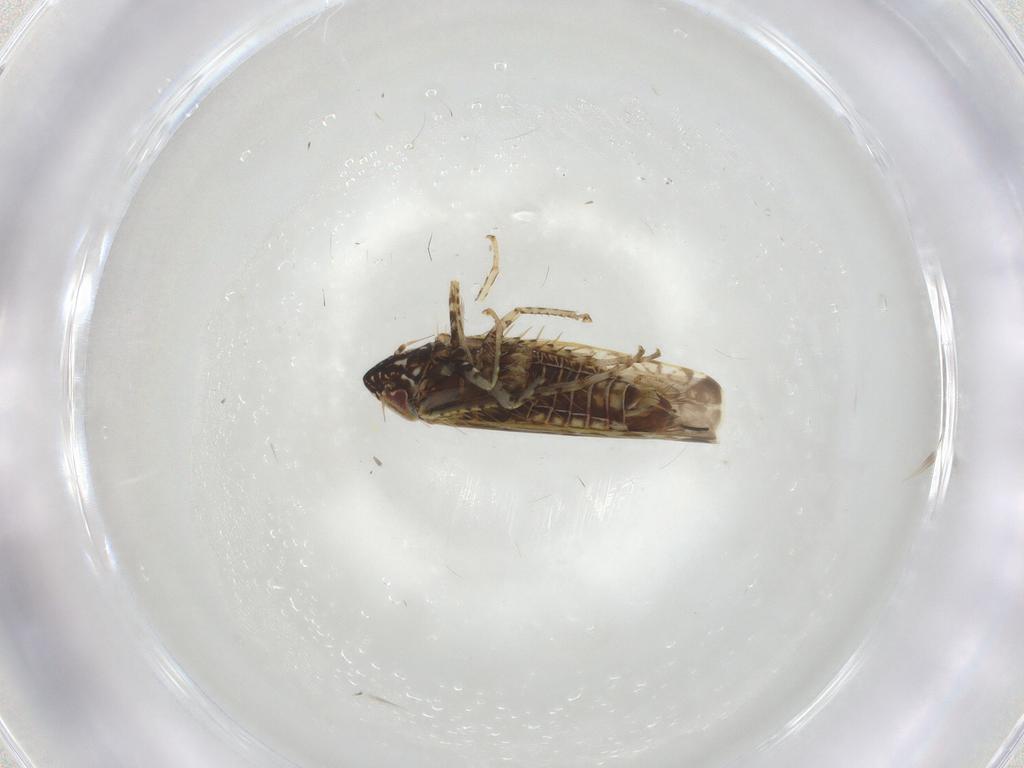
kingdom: Animalia
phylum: Arthropoda
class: Insecta
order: Hemiptera
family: Cicadellidae
